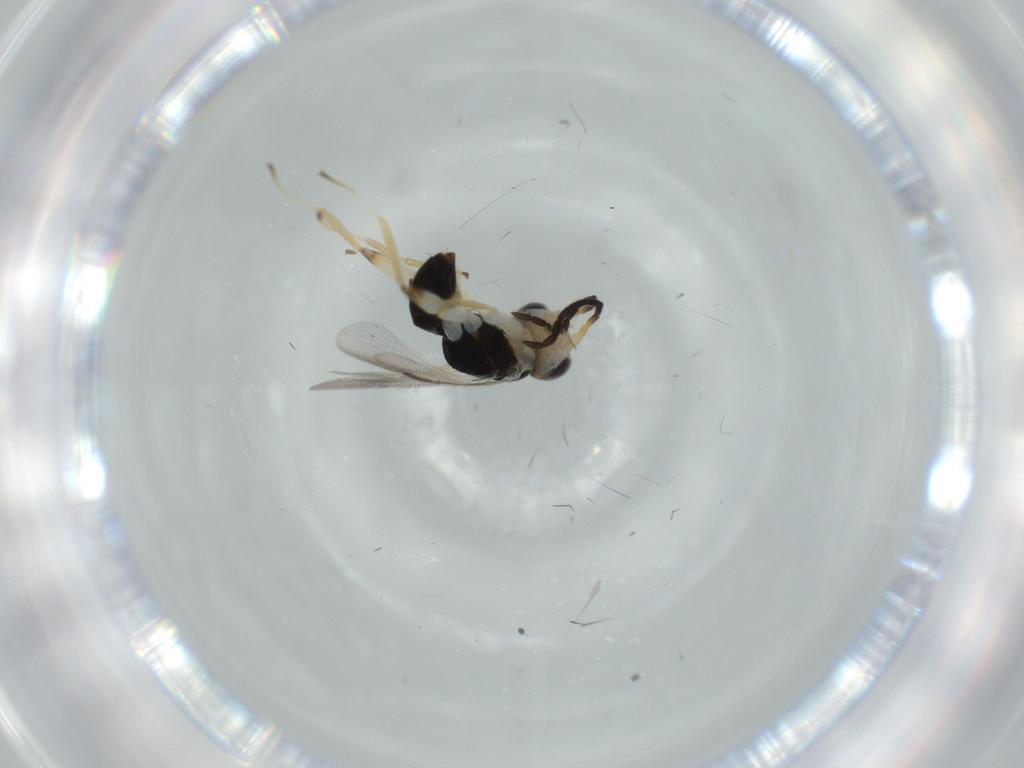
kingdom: Animalia
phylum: Arthropoda
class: Insecta
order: Hymenoptera
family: Dryinidae
